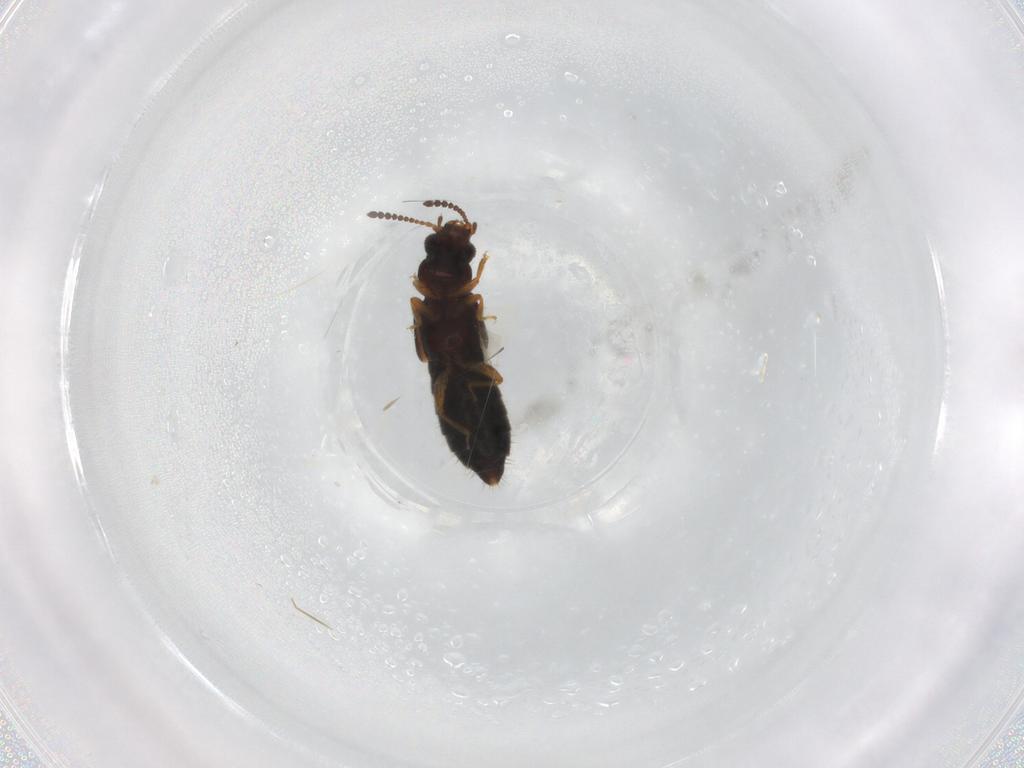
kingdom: Animalia
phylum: Arthropoda
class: Insecta
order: Coleoptera
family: Staphylinidae
